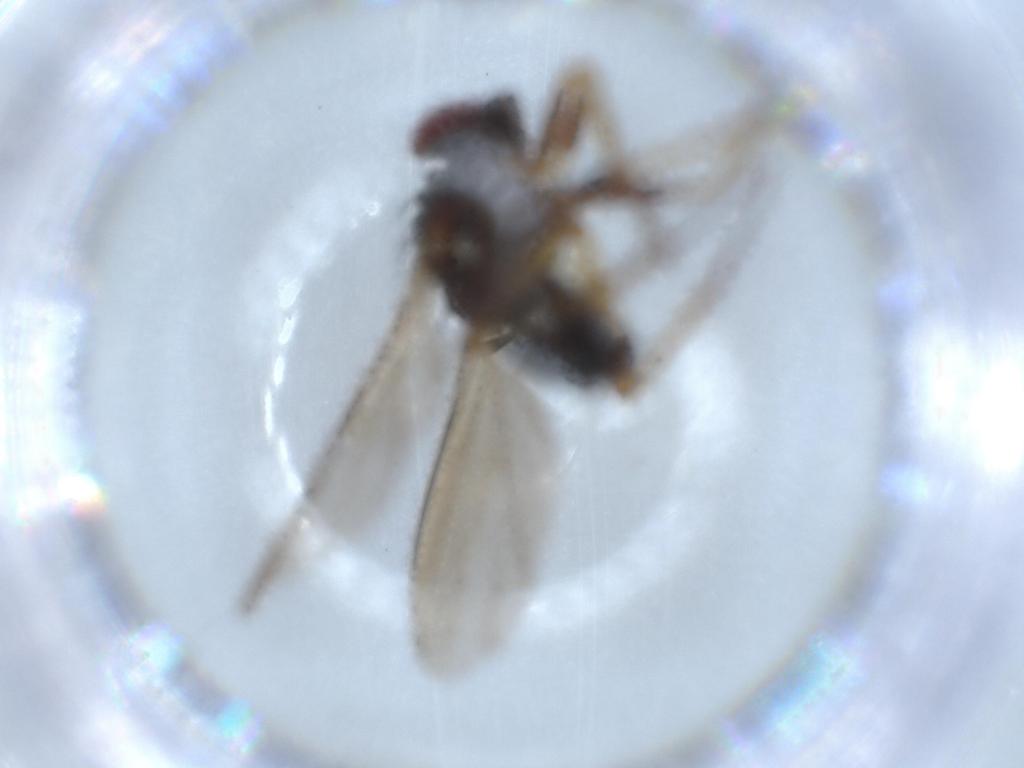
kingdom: Animalia
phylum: Arthropoda
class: Insecta
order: Diptera
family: Dolichopodidae
